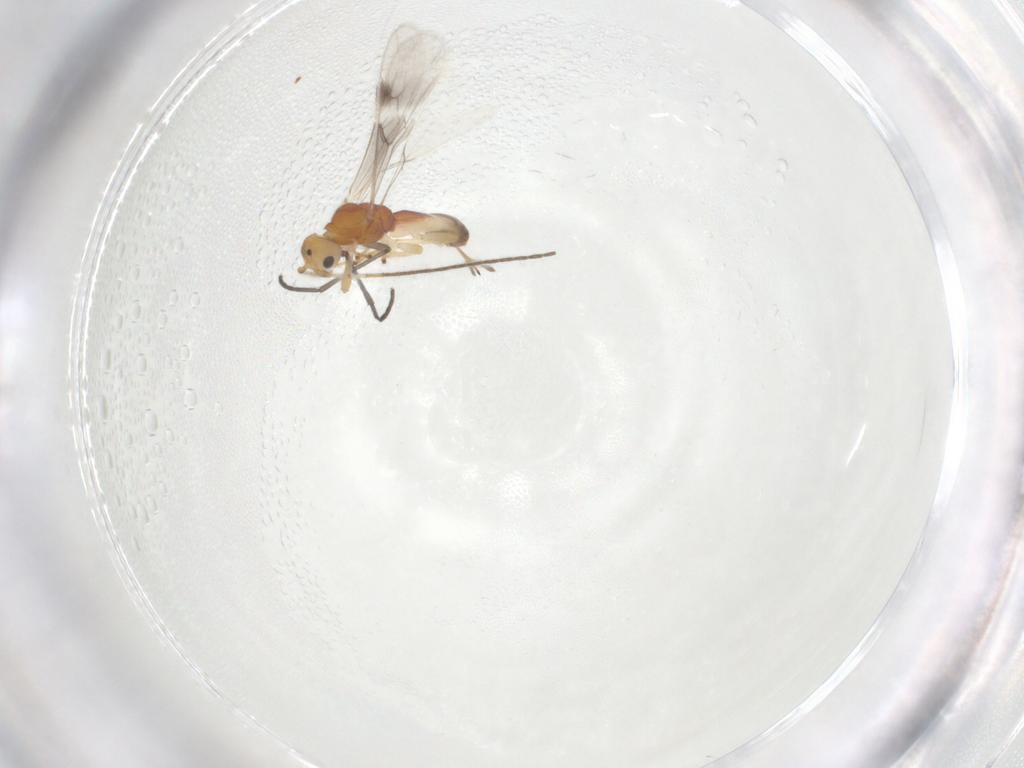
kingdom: Animalia
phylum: Arthropoda
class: Insecta
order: Hymenoptera
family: Braconidae
